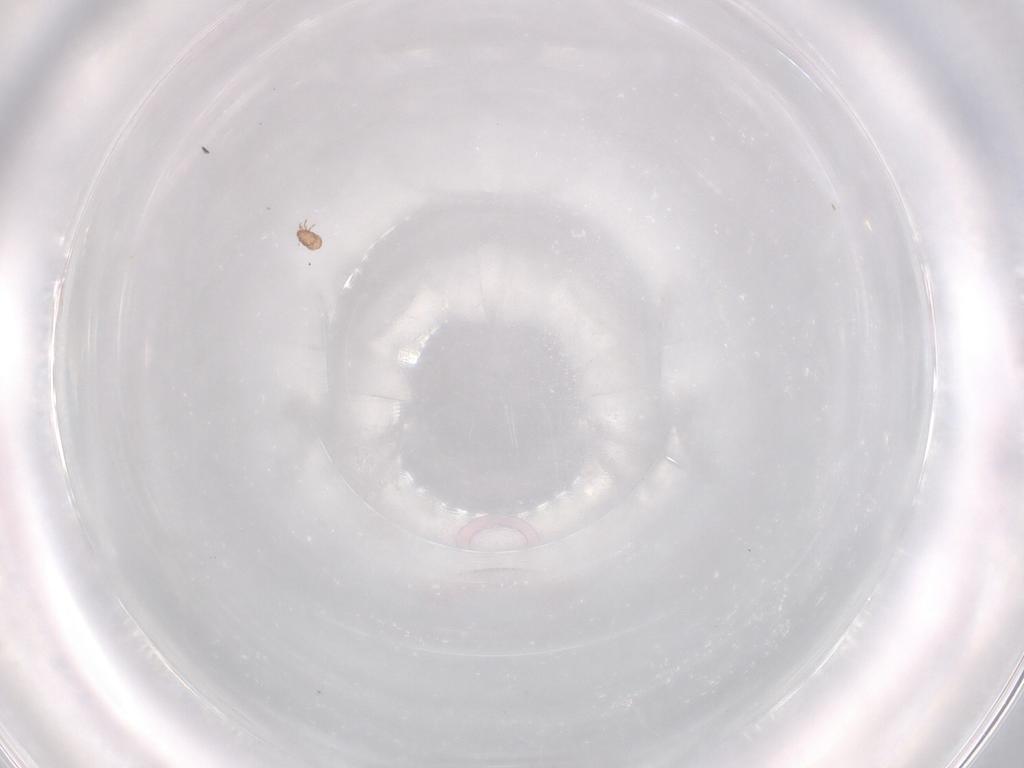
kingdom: Animalia
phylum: Arthropoda
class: Arachnida
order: Sarcoptiformes
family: Eremaeidae
